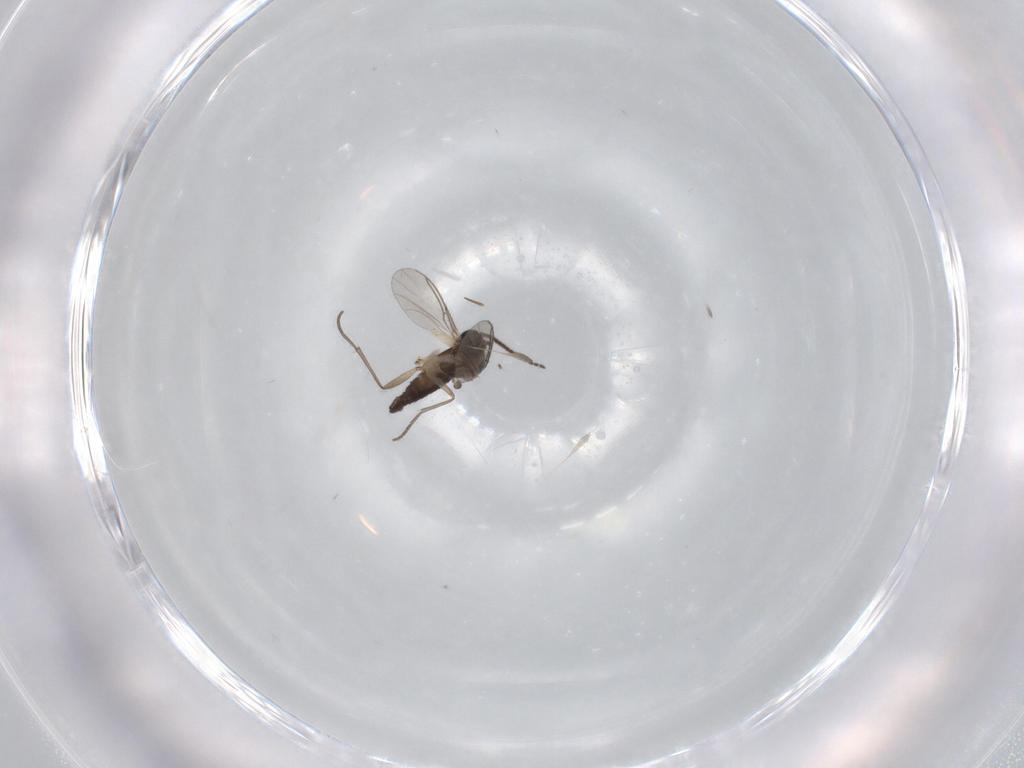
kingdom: Animalia
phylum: Arthropoda
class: Insecta
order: Diptera
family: Sciaridae
